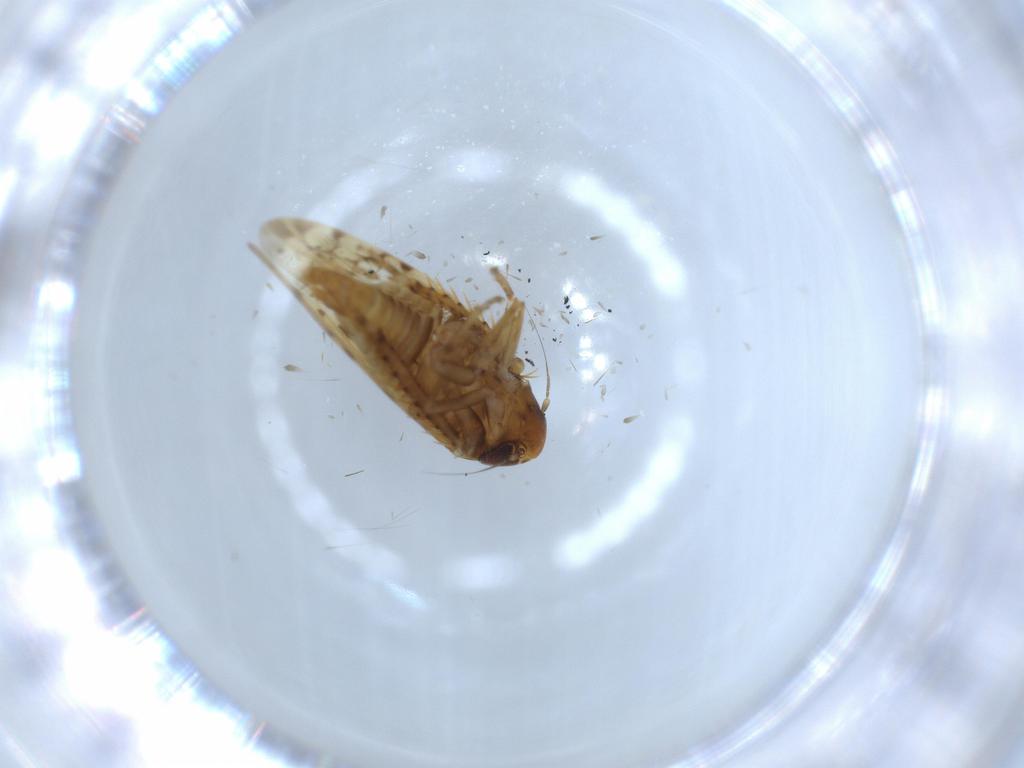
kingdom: Animalia
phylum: Arthropoda
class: Insecta
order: Hemiptera
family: Cicadellidae
